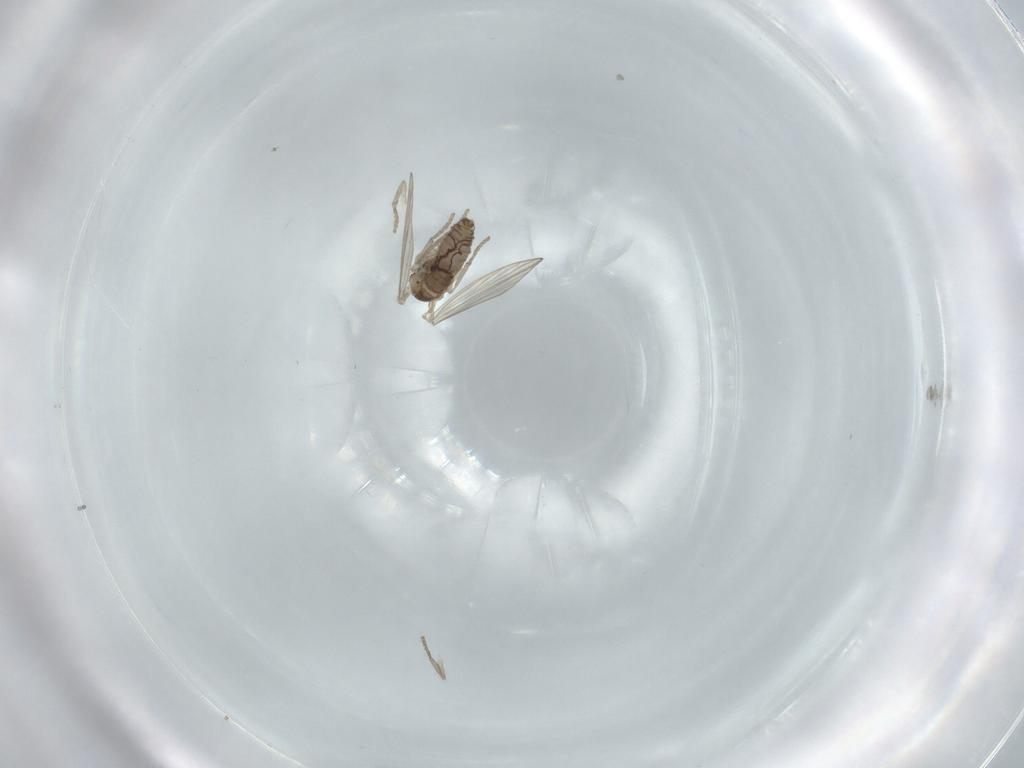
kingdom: Animalia
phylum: Arthropoda
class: Insecta
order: Diptera
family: Psychodidae
